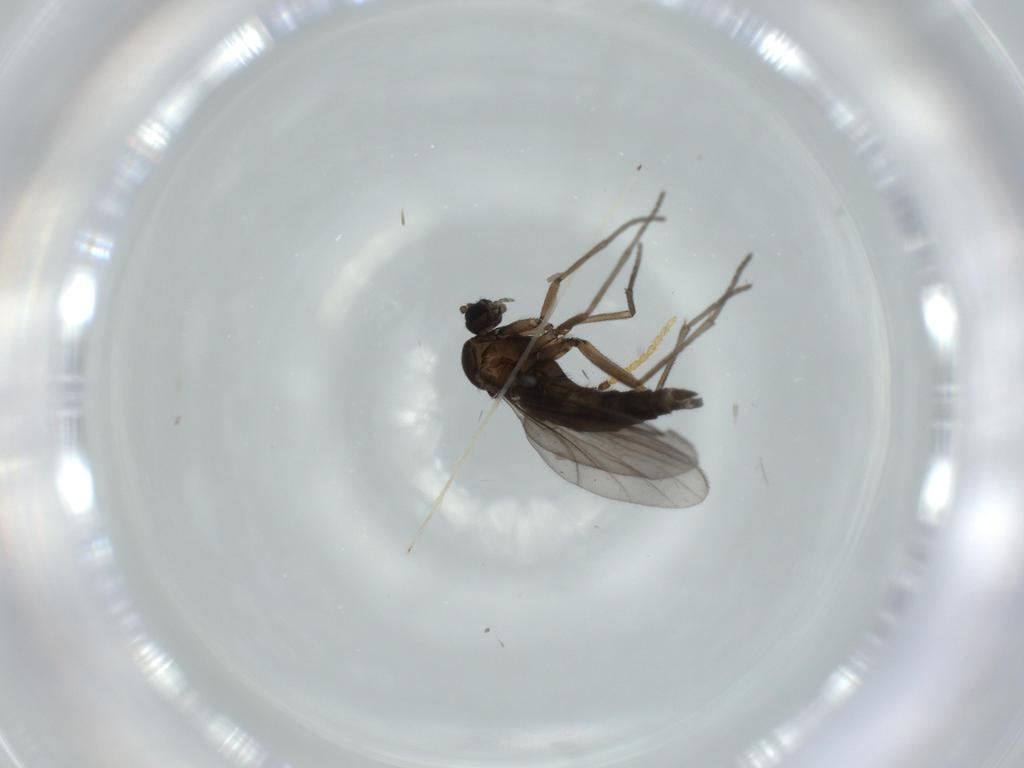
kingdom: Animalia
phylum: Arthropoda
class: Insecta
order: Diptera
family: Sciaridae
